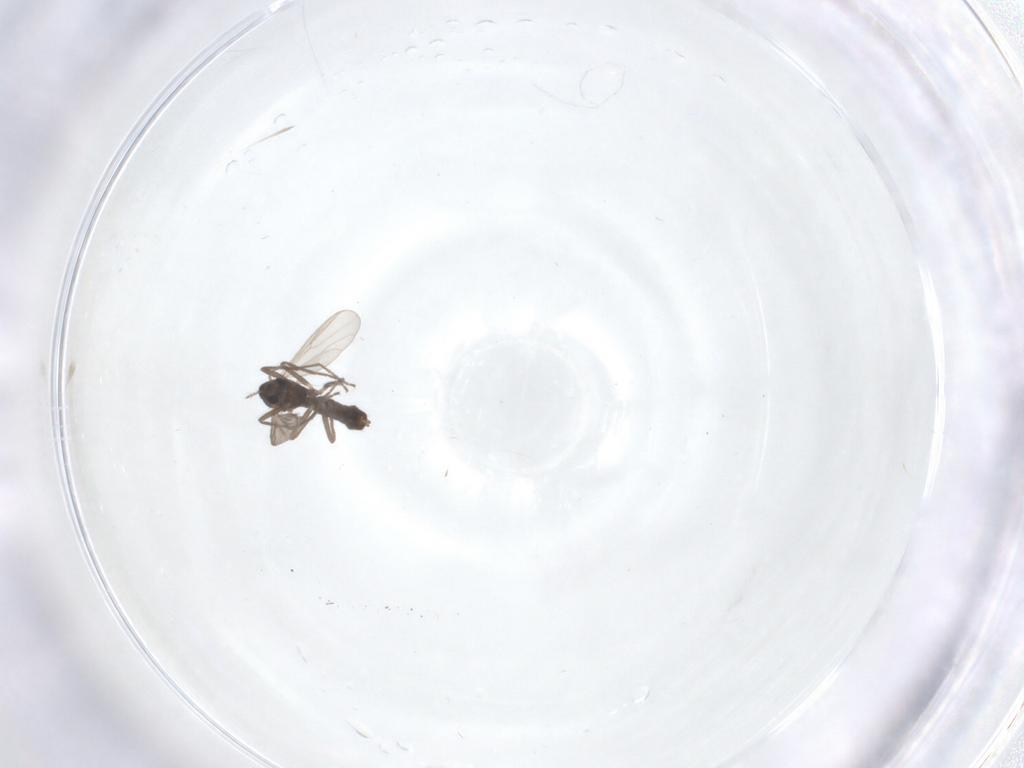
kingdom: Animalia
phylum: Arthropoda
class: Insecta
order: Diptera
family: Chironomidae
